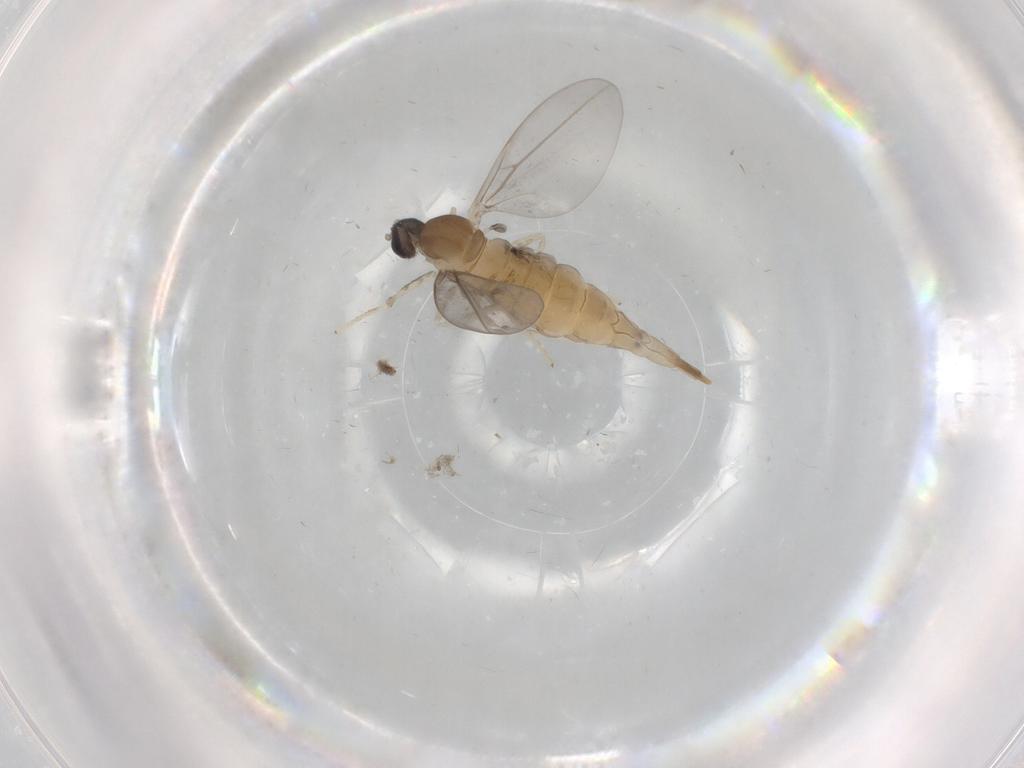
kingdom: Animalia
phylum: Arthropoda
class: Insecta
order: Diptera
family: Cecidomyiidae
